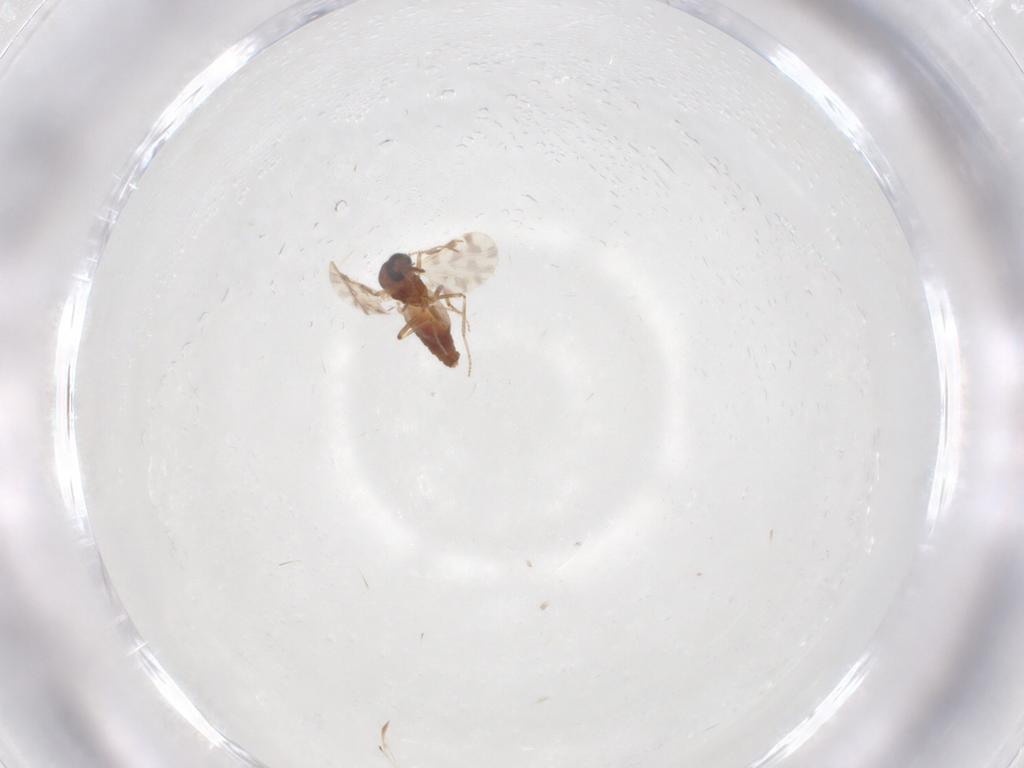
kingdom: Animalia
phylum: Arthropoda
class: Insecta
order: Diptera
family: Ceratopogonidae
